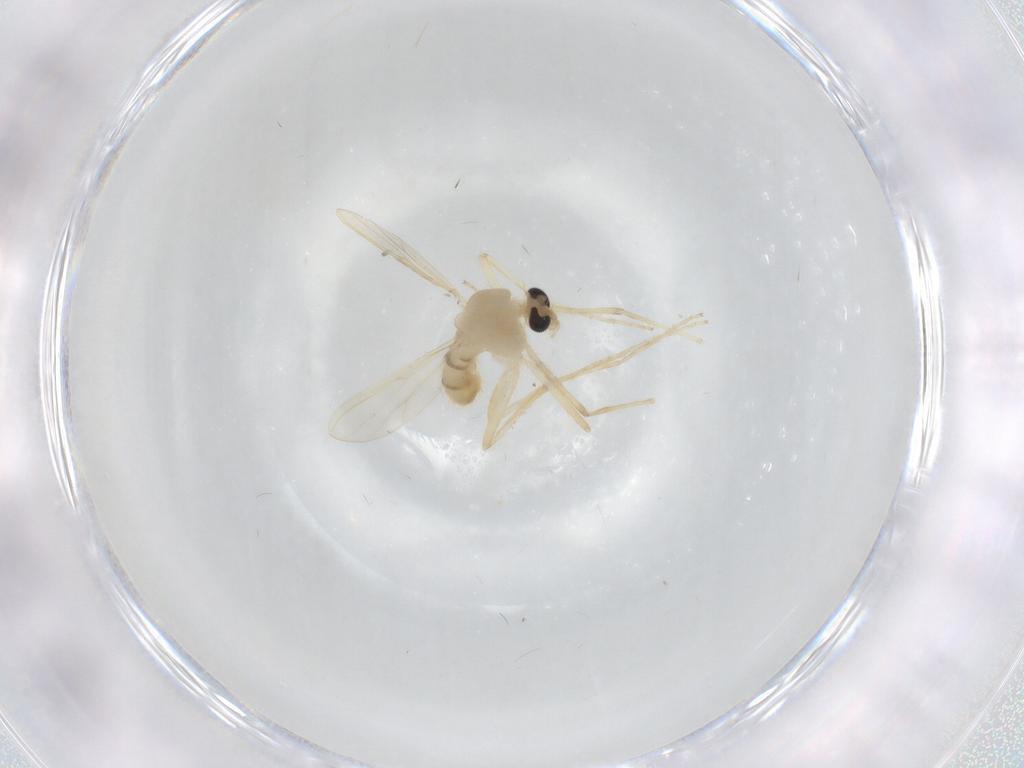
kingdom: Animalia
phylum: Arthropoda
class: Insecta
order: Diptera
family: Chironomidae
